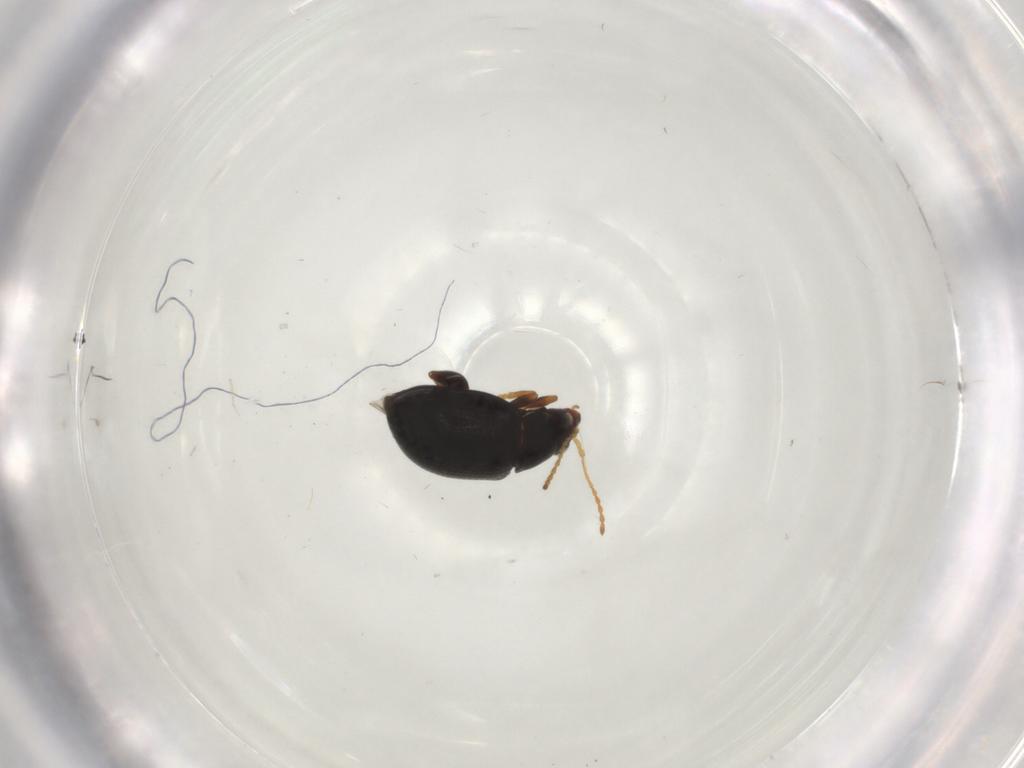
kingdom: Animalia
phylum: Arthropoda
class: Insecta
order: Coleoptera
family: Chrysomelidae
